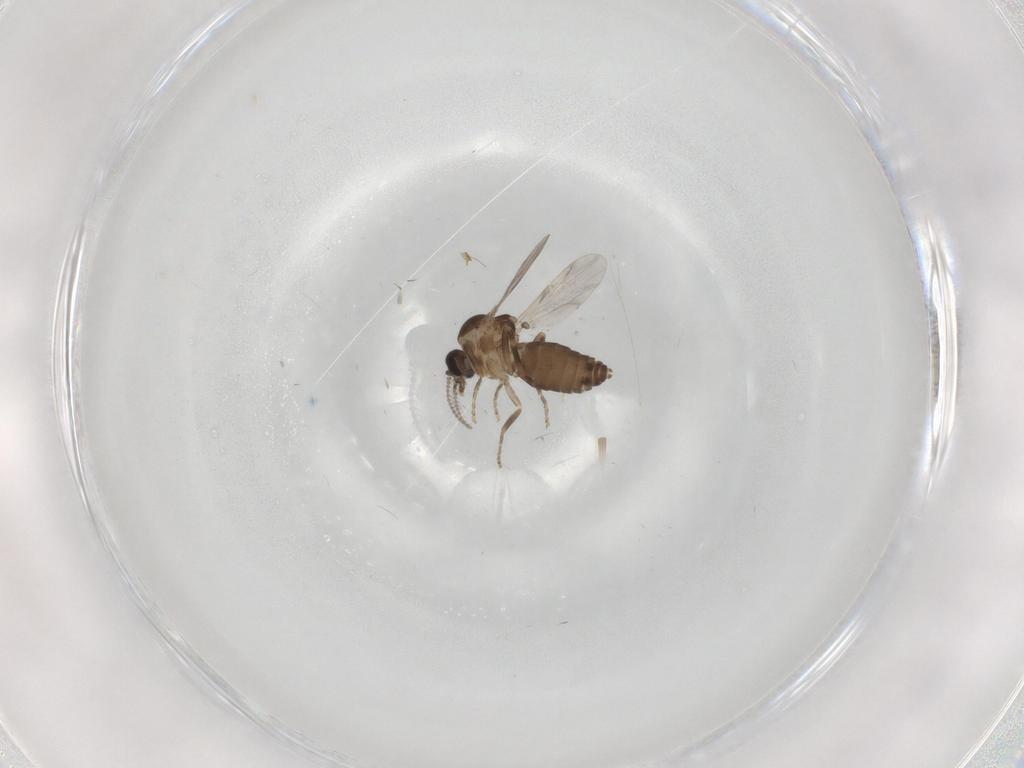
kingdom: Animalia
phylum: Arthropoda
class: Insecta
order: Diptera
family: Ceratopogonidae
